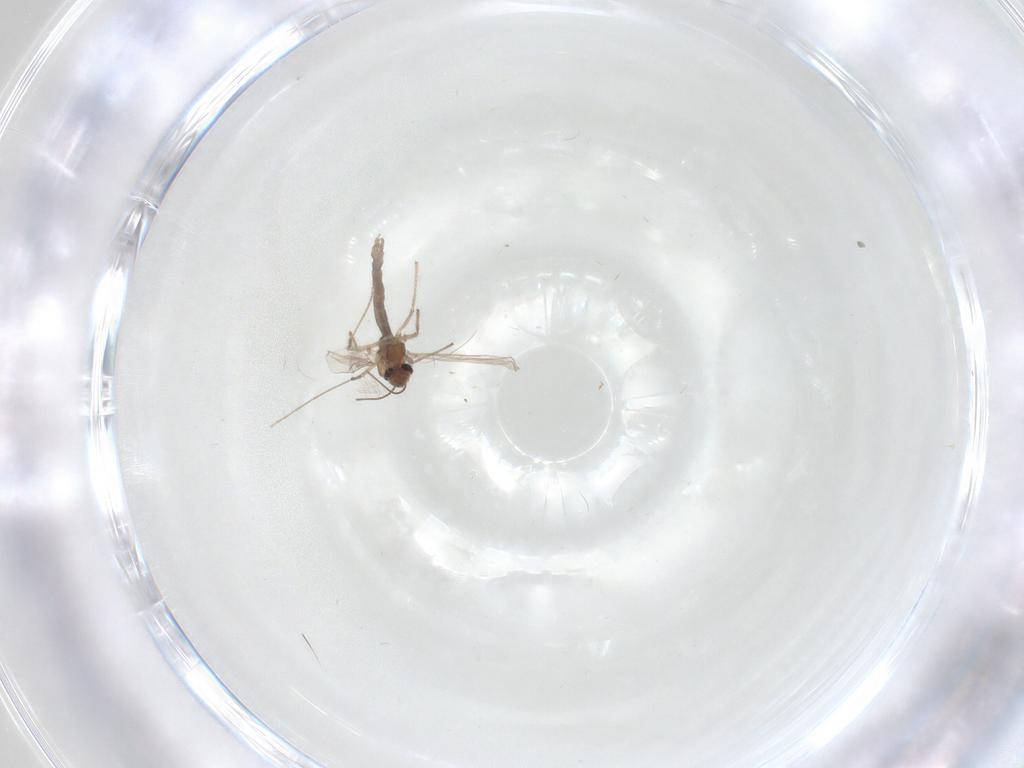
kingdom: Animalia
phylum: Arthropoda
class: Insecta
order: Diptera
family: Chironomidae
